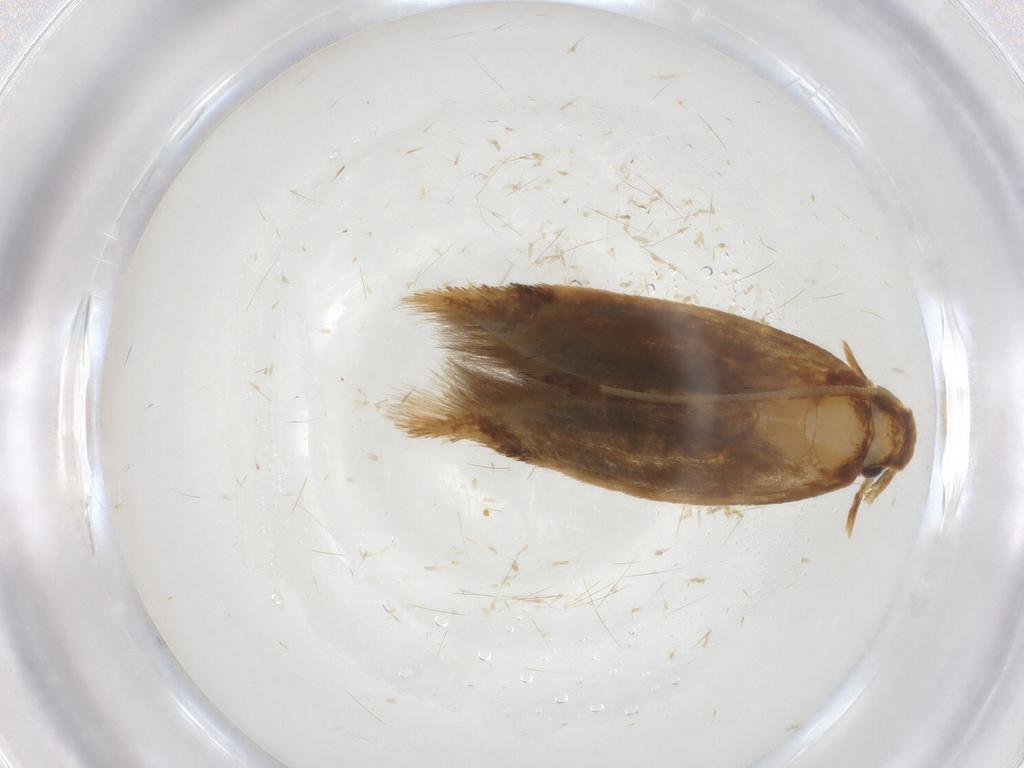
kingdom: Animalia
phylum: Arthropoda
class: Insecta
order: Lepidoptera
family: Tineidae
